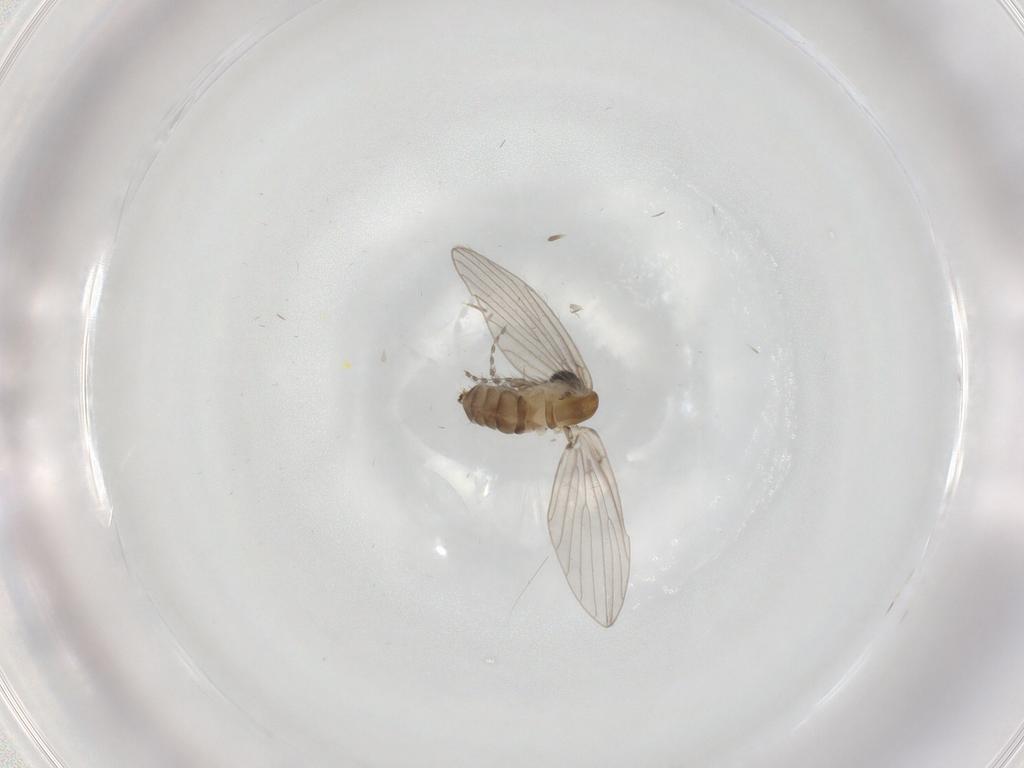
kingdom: Animalia
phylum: Arthropoda
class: Insecta
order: Diptera
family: Psychodidae
